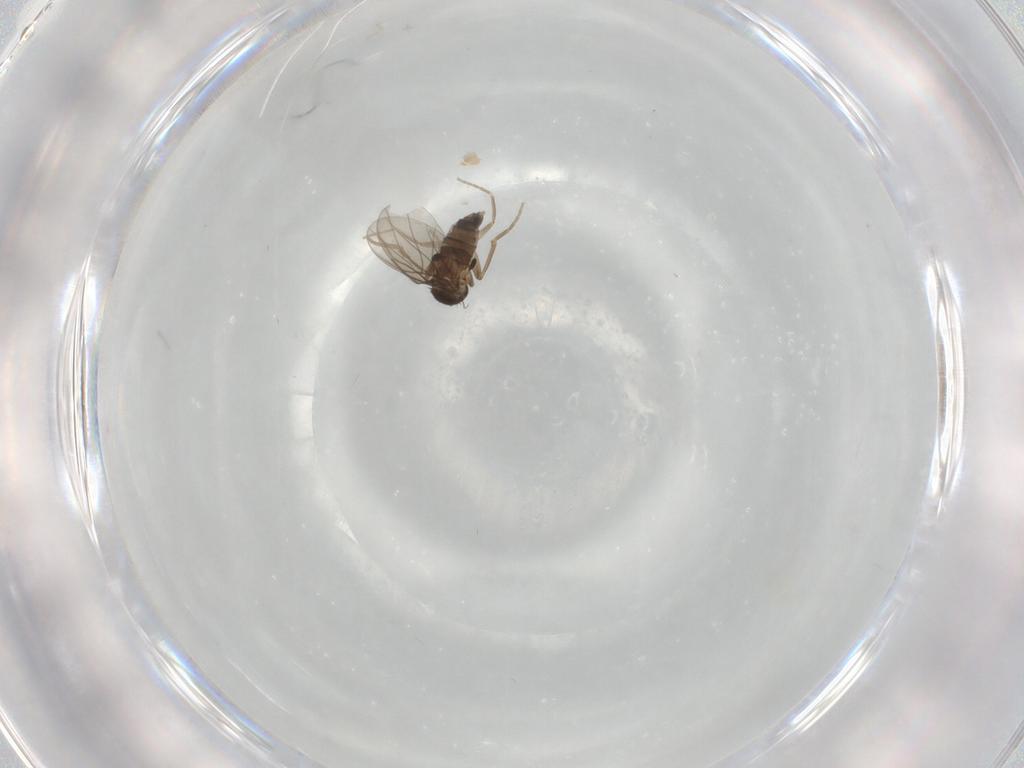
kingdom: Animalia
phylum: Arthropoda
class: Insecta
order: Diptera
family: Phoridae
